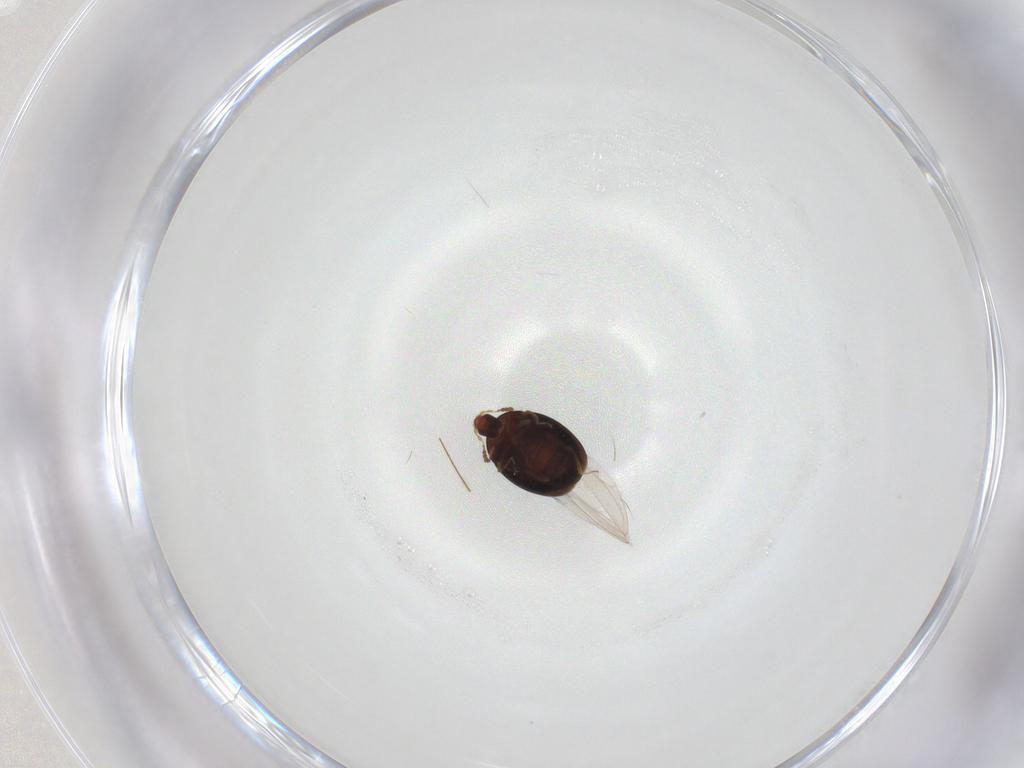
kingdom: Animalia
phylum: Arthropoda
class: Insecta
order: Coleoptera
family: Corylophidae
